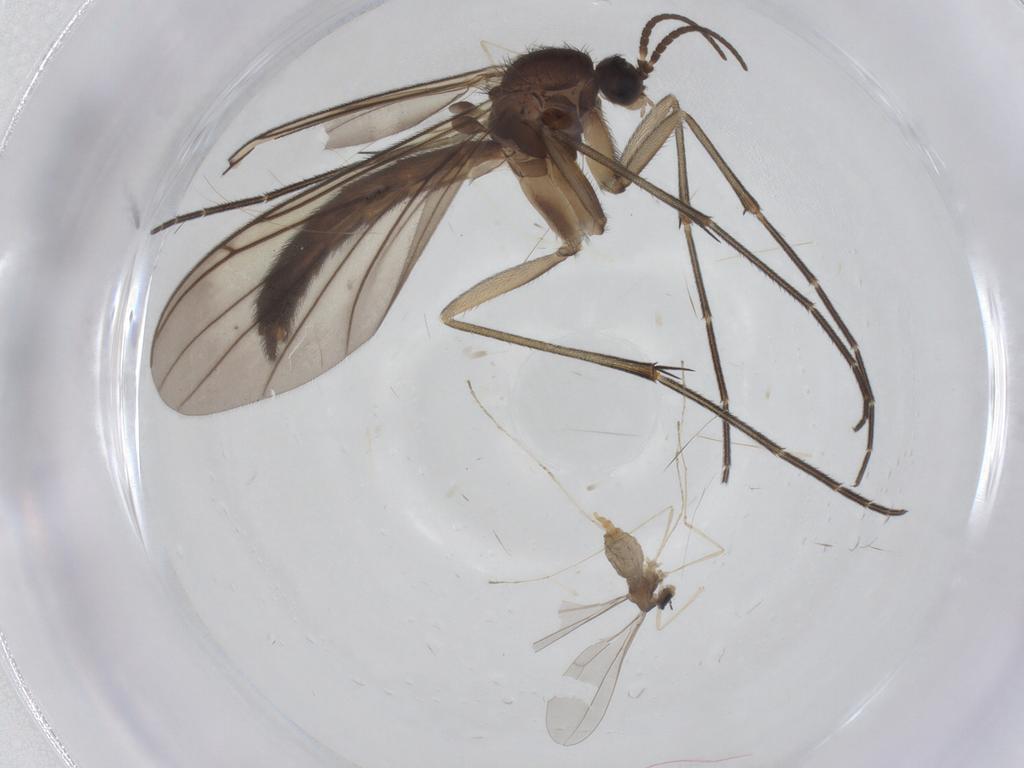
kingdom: Animalia
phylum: Arthropoda
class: Insecta
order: Diptera
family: Keroplatidae
